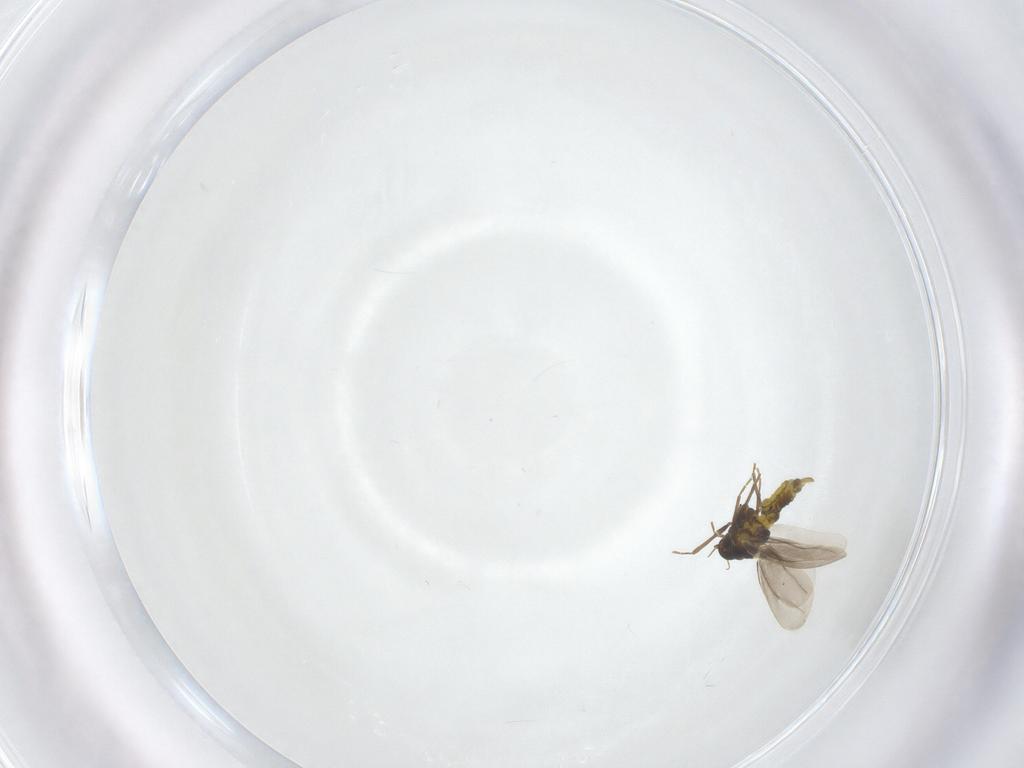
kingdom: Animalia
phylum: Arthropoda
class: Insecta
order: Hemiptera
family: Aleyrodidae
